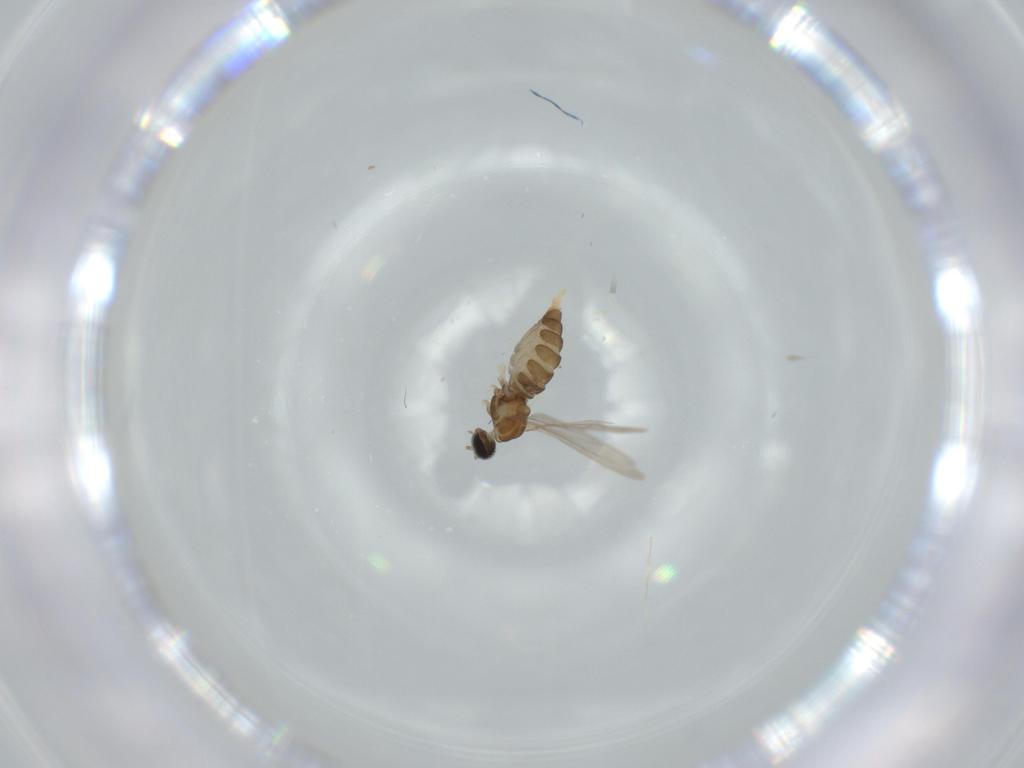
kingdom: Animalia
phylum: Arthropoda
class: Insecta
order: Diptera
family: Cecidomyiidae
